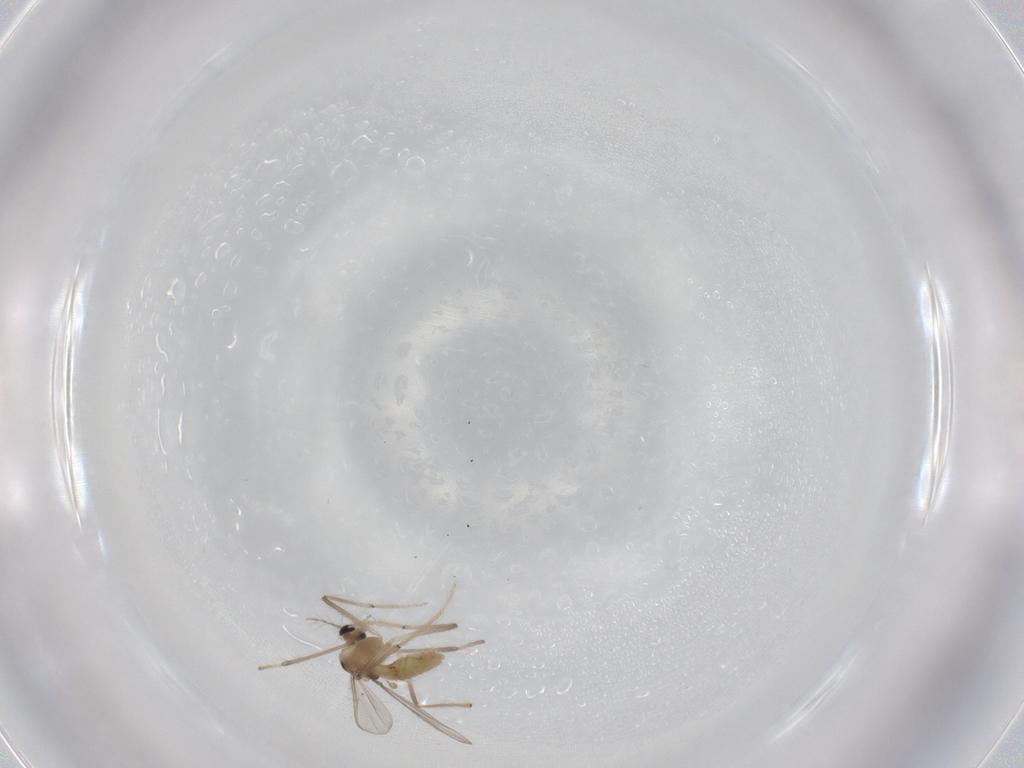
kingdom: Animalia
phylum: Arthropoda
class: Insecta
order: Diptera
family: Chironomidae
